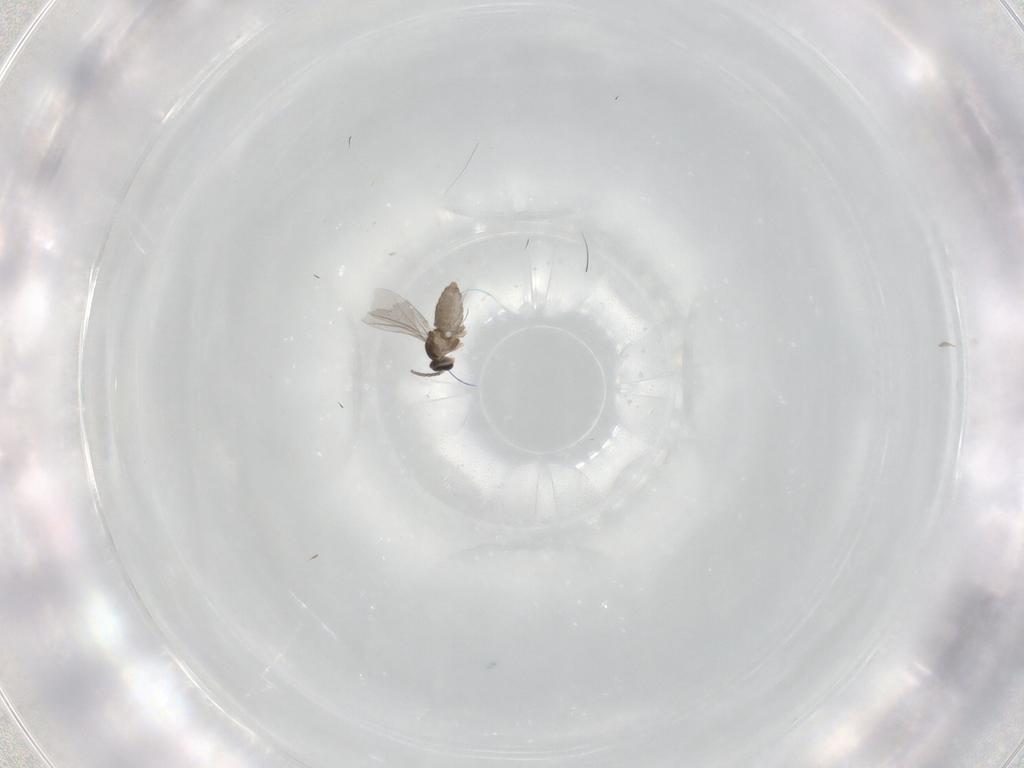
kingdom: Animalia
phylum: Arthropoda
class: Insecta
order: Diptera
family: Cecidomyiidae
